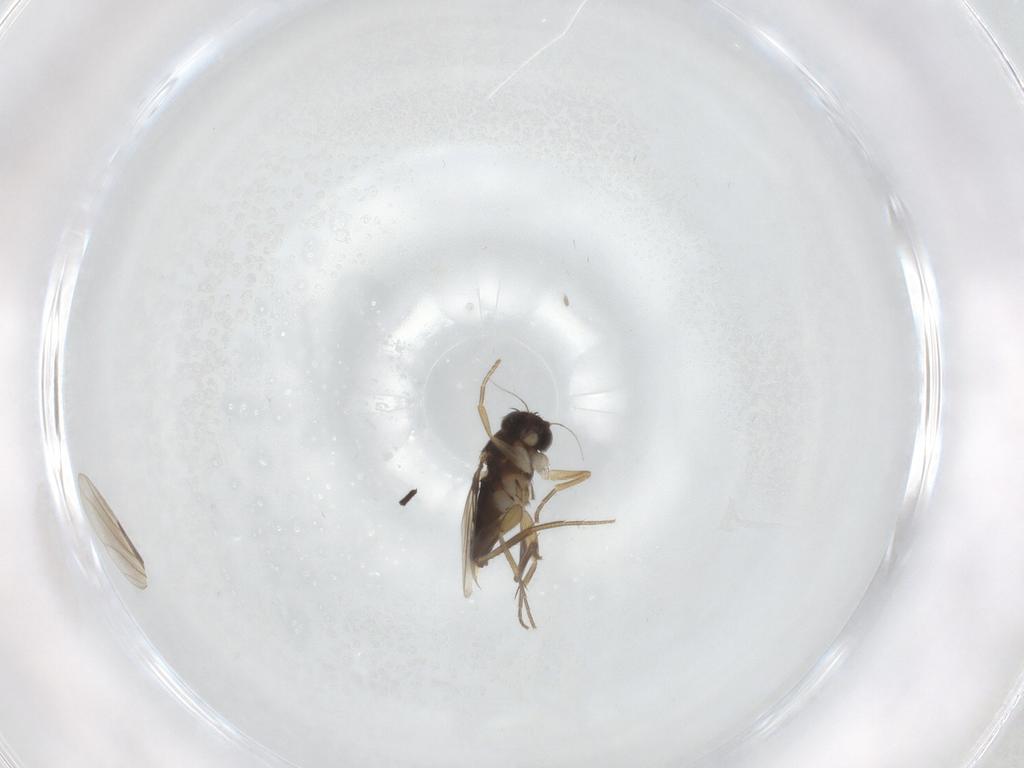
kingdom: Animalia
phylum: Arthropoda
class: Insecta
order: Diptera
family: Phoridae
